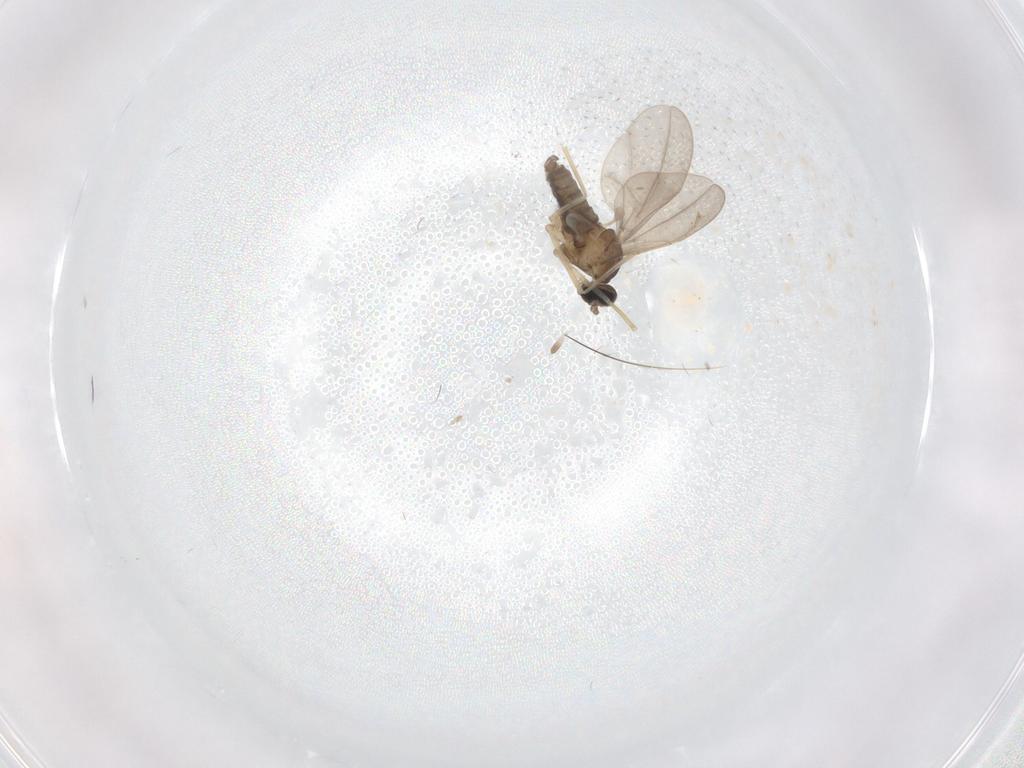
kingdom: Animalia
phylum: Arthropoda
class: Insecta
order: Diptera
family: Cecidomyiidae
